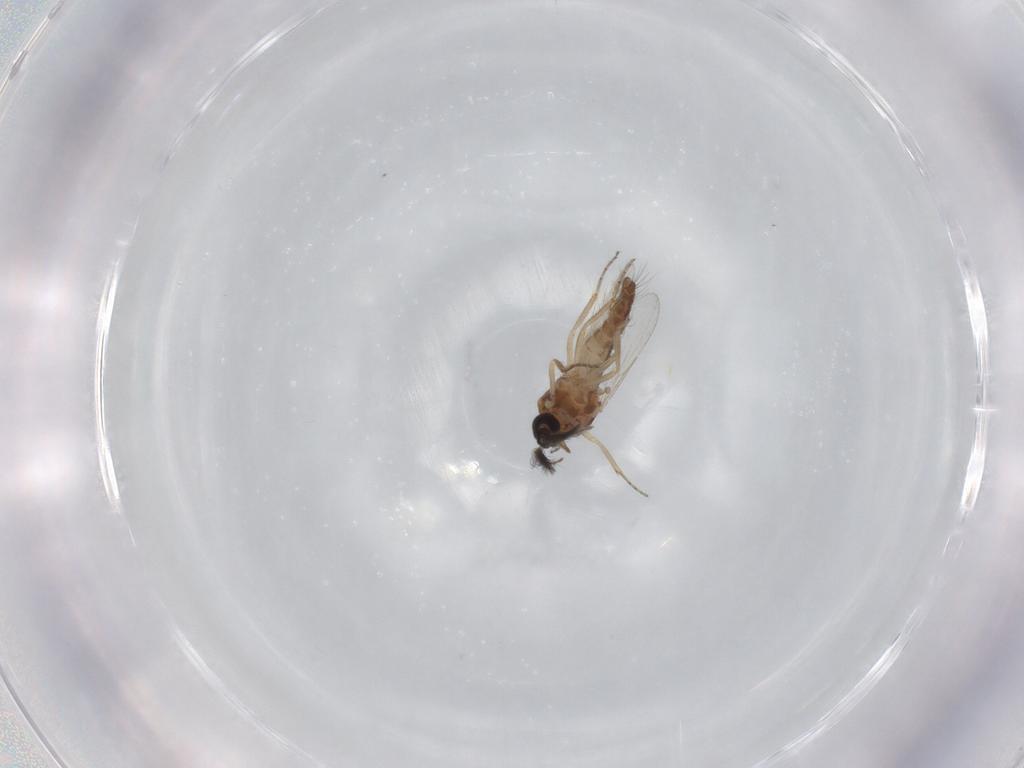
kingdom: Animalia
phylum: Arthropoda
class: Insecta
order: Diptera
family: Ceratopogonidae
